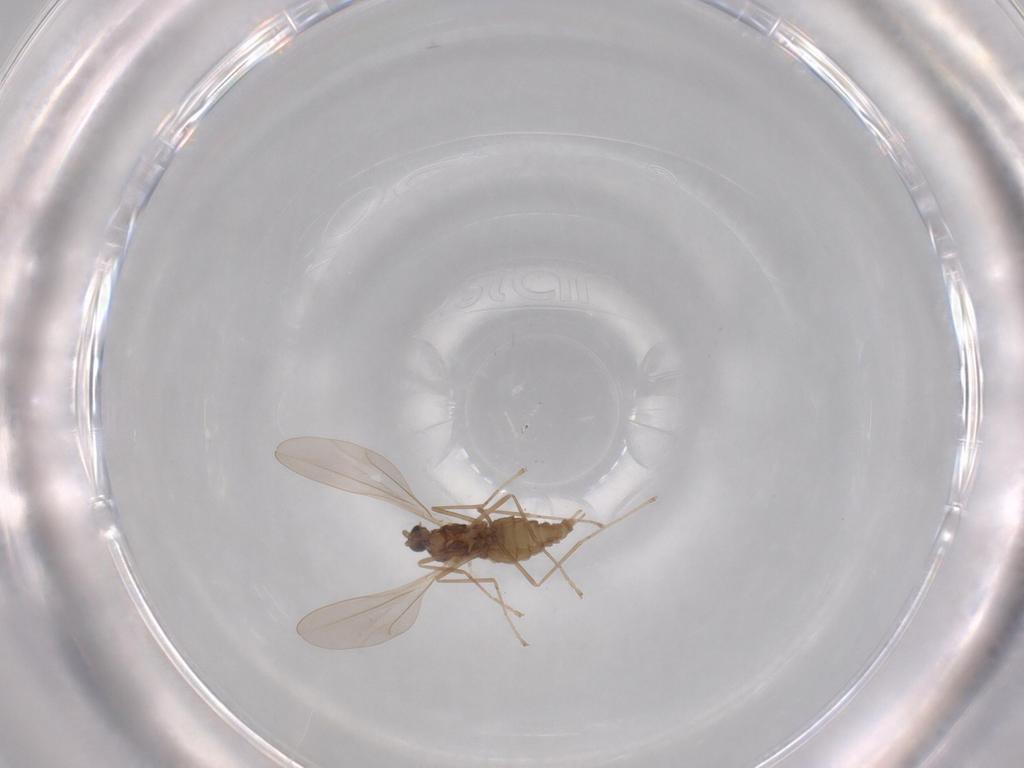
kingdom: Animalia
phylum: Arthropoda
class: Insecta
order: Diptera
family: Cecidomyiidae
